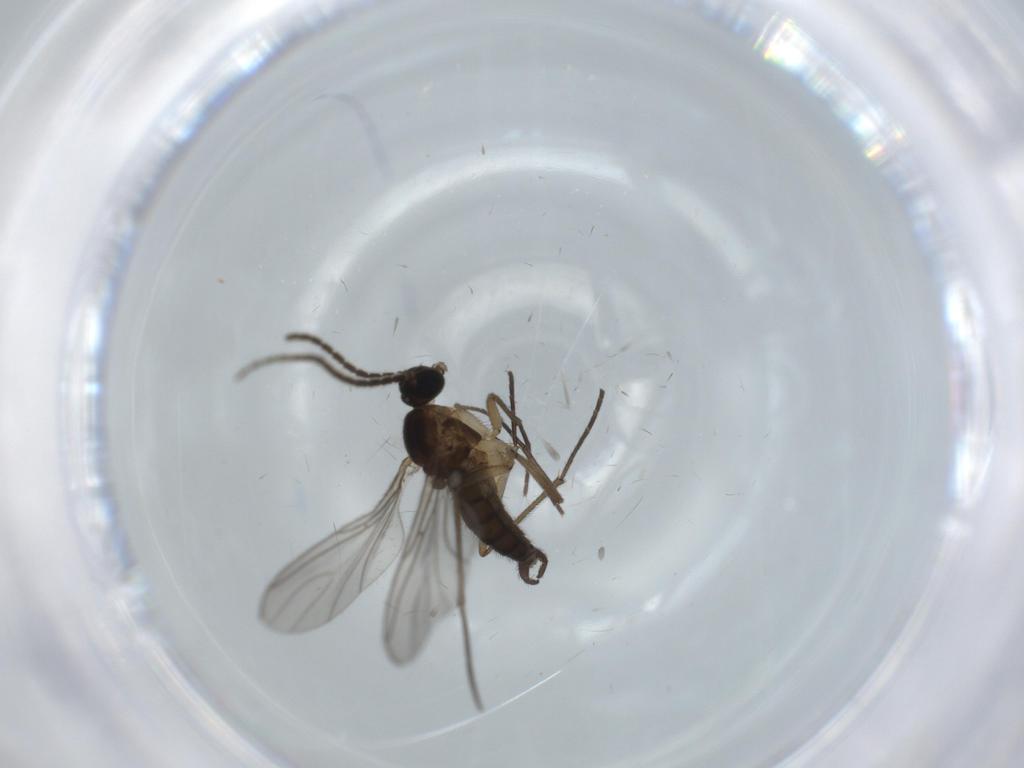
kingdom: Animalia
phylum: Arthropoda
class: Insecta
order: Diptera
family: Sciaridae
